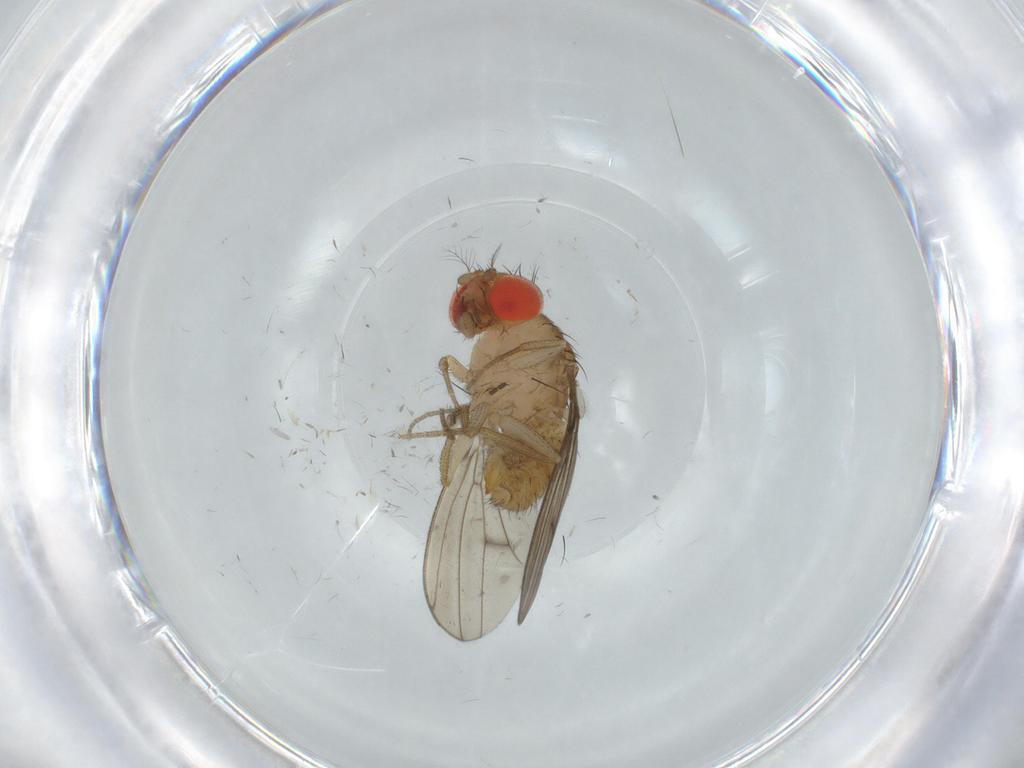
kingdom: Animalia
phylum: Arthropoda
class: Insecta
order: Diptera
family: Drosophilidae
